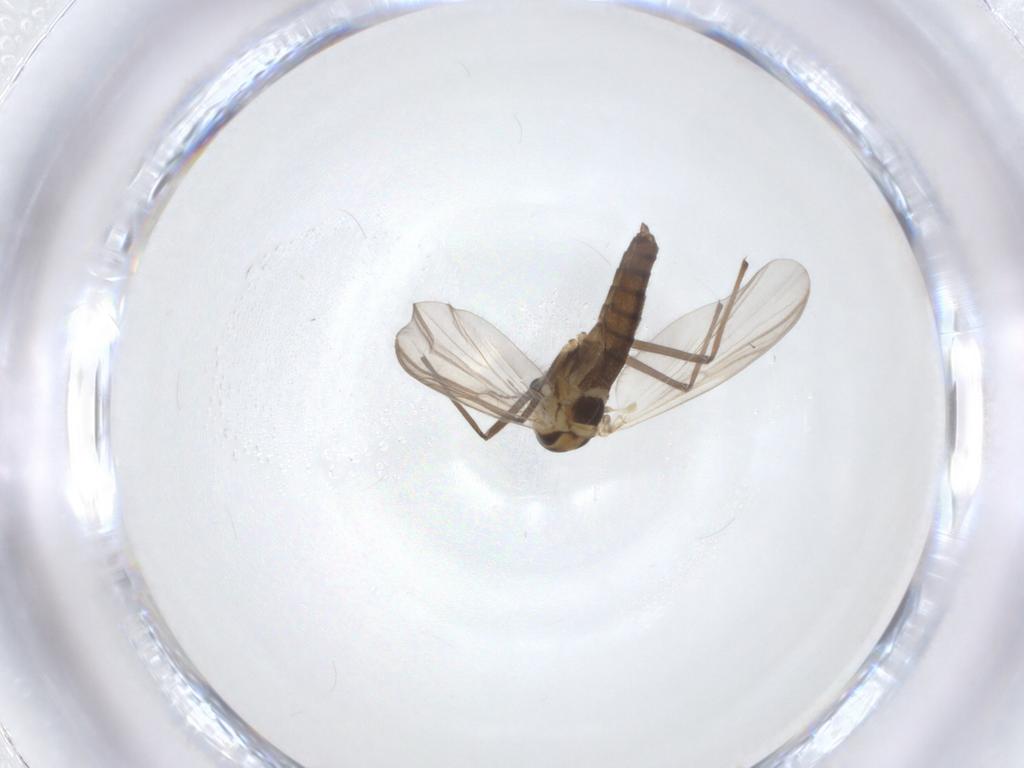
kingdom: Animalia
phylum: Arthropoda
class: Insecta
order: Diptera
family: Chironomidae
